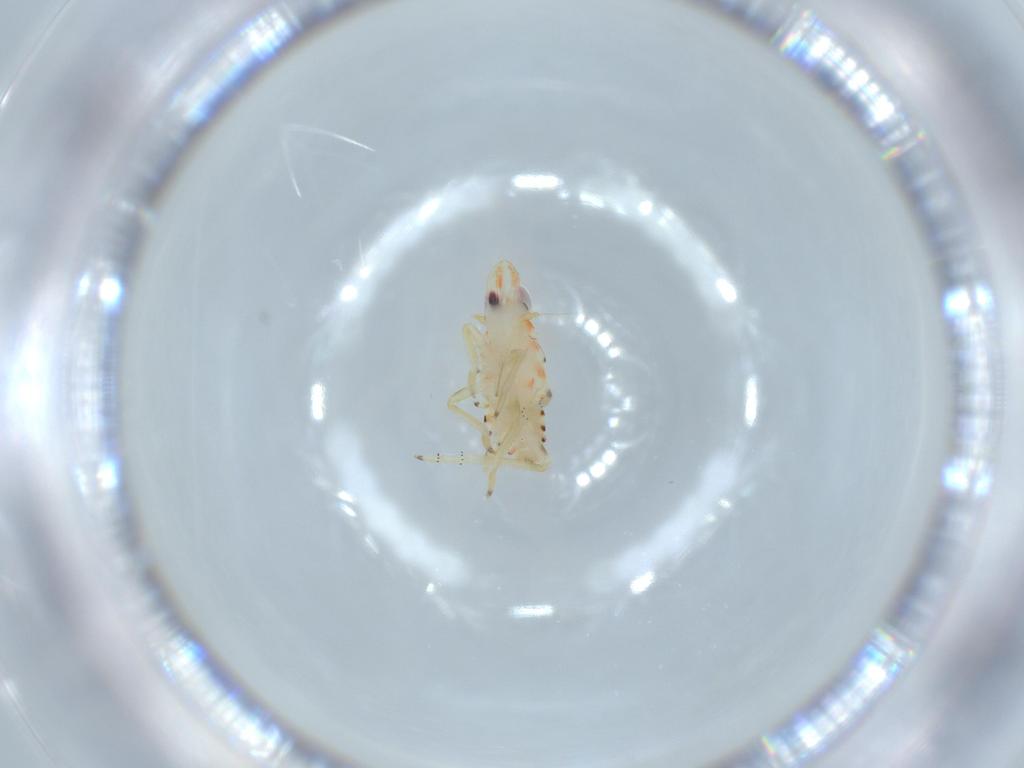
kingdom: Animalia
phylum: Arthropoda
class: Insecta
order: Hemiptera
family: Tropiduchidae
